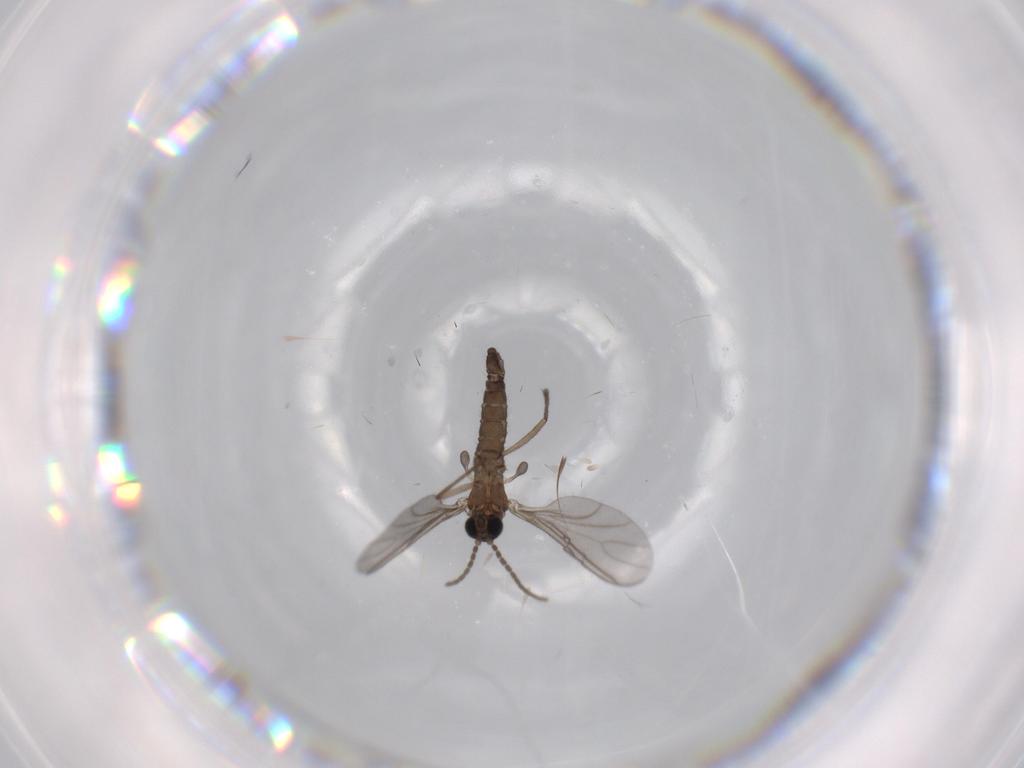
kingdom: Animalia
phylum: Arthropoda
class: Insecta
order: Diptera
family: Sciaridae
